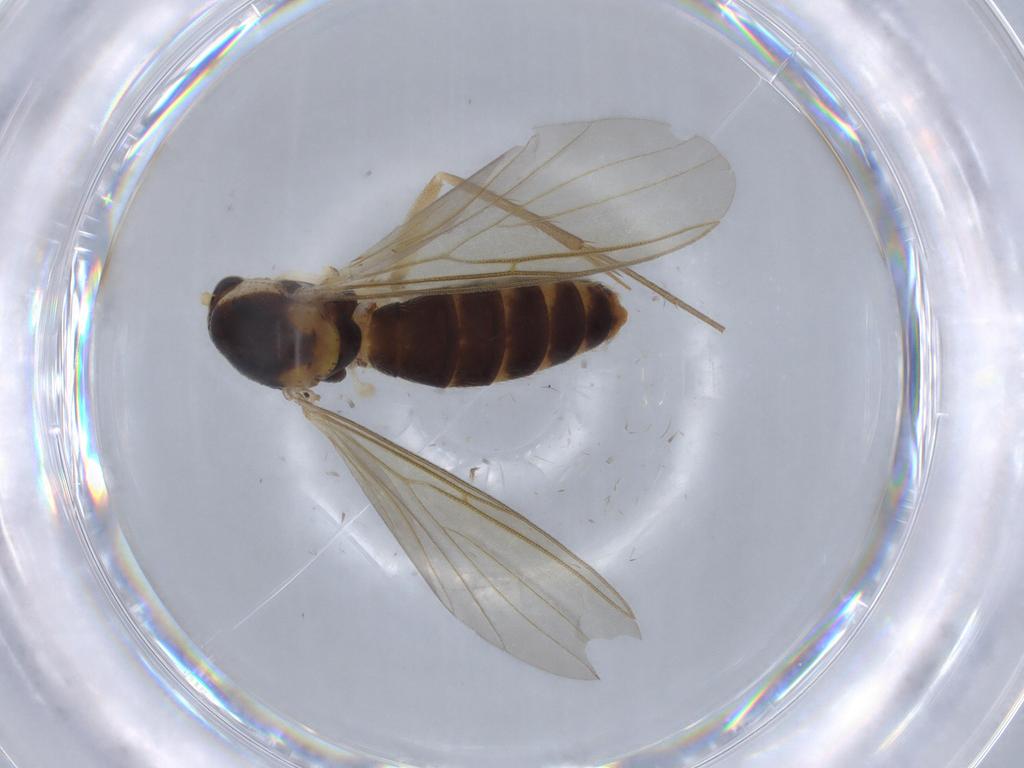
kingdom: Animalia
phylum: Arthropoda
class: Insecta
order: Diptera
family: Ceratopogonidae
